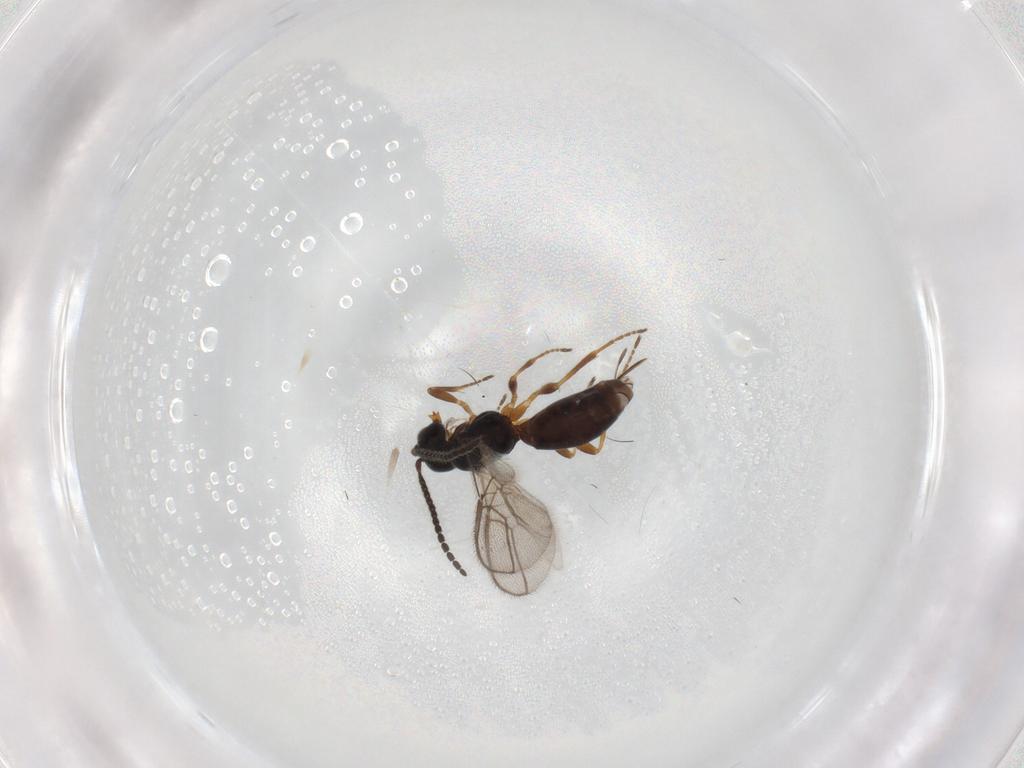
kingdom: Animalia
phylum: Arthropoda
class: Insecta
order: Hymenoptera
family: Braconidae
